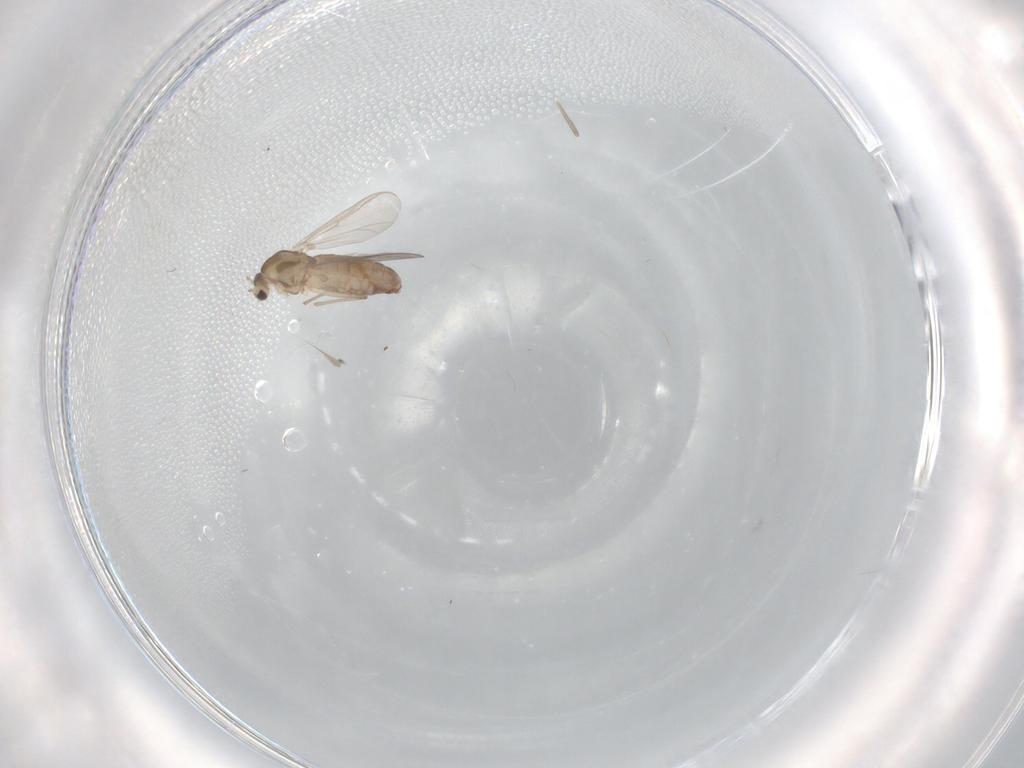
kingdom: Animalia
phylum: Arthropoda
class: Insecta
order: Diptera
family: Chironomidae
